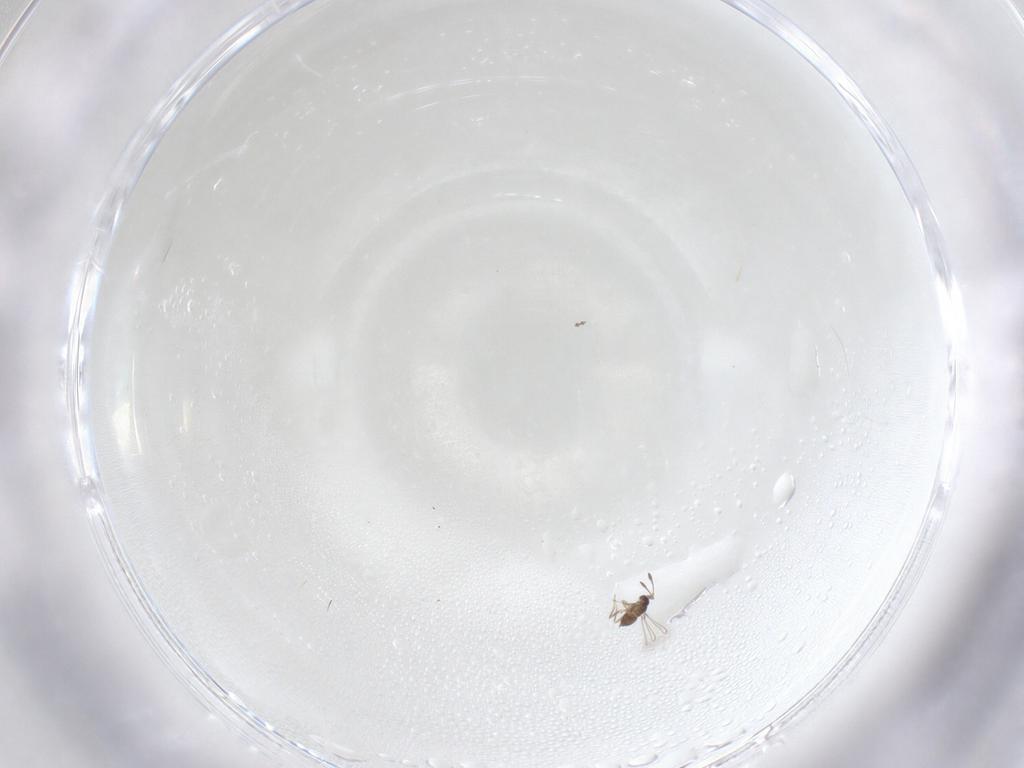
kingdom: Animalia
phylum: Arthropoda
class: Insecta
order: Hymenoptera
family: Mymaridae
